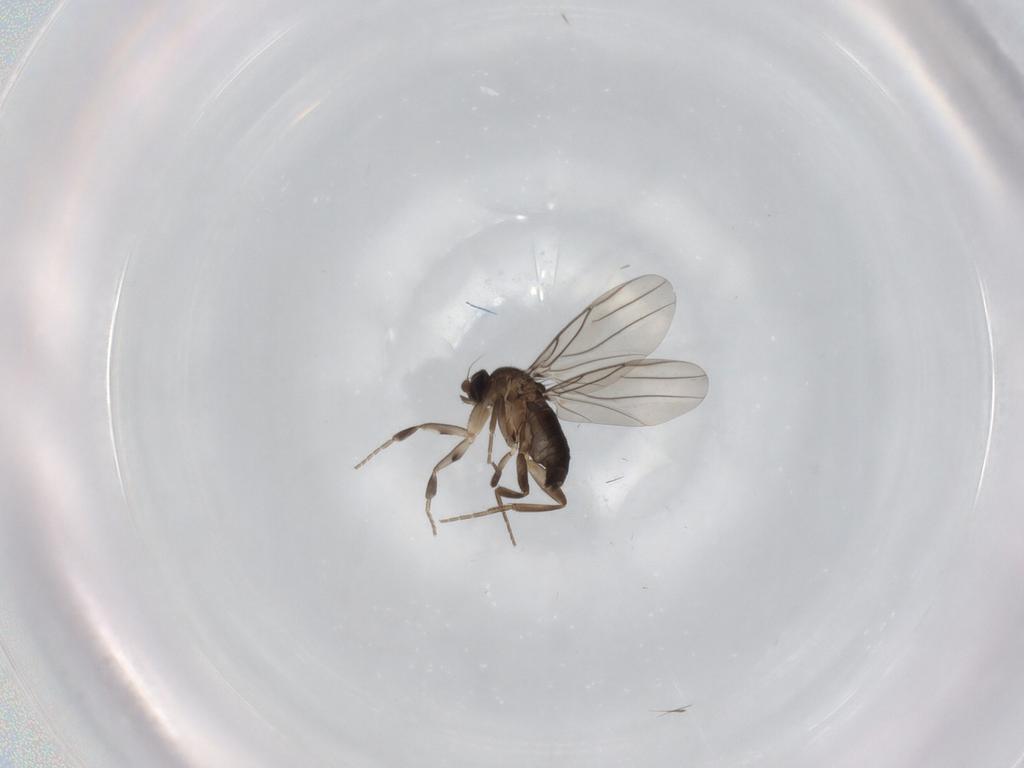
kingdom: Animalia
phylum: Arthropoda
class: Insecta
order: Diptera
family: Phoridae
